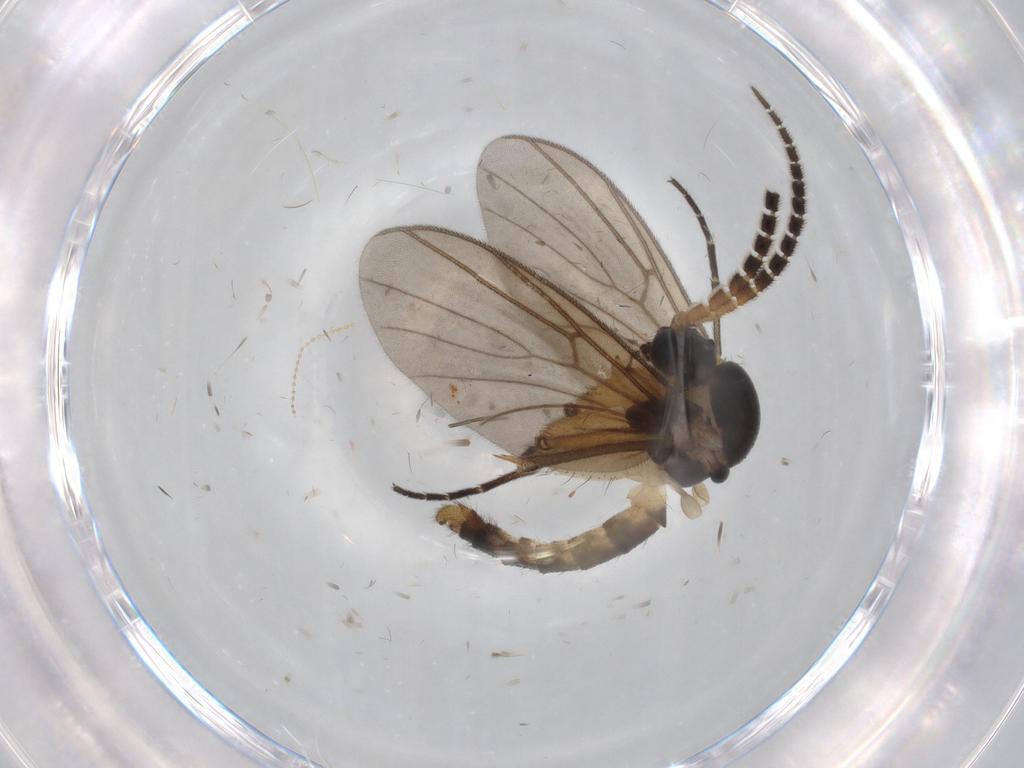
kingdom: Animalia
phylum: Arthropoda
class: Insecta
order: Diptera
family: Mycetophilidae
